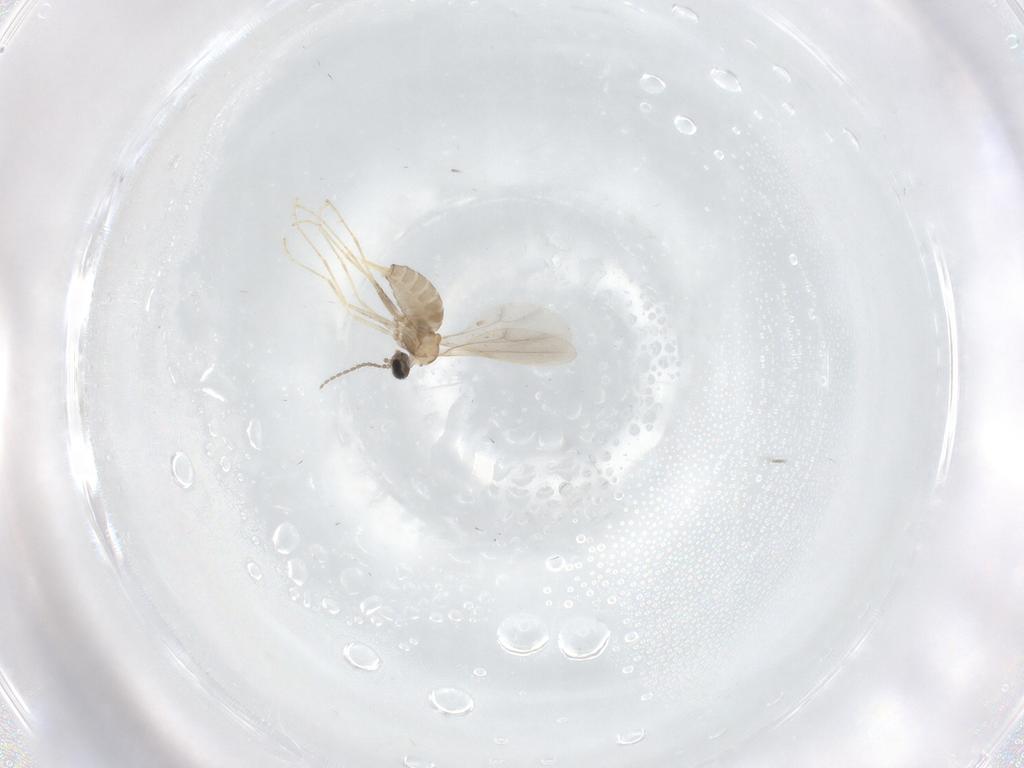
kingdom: Animalia
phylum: Arthropoda
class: Insecta
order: Diptera
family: Cecidomyiidae
